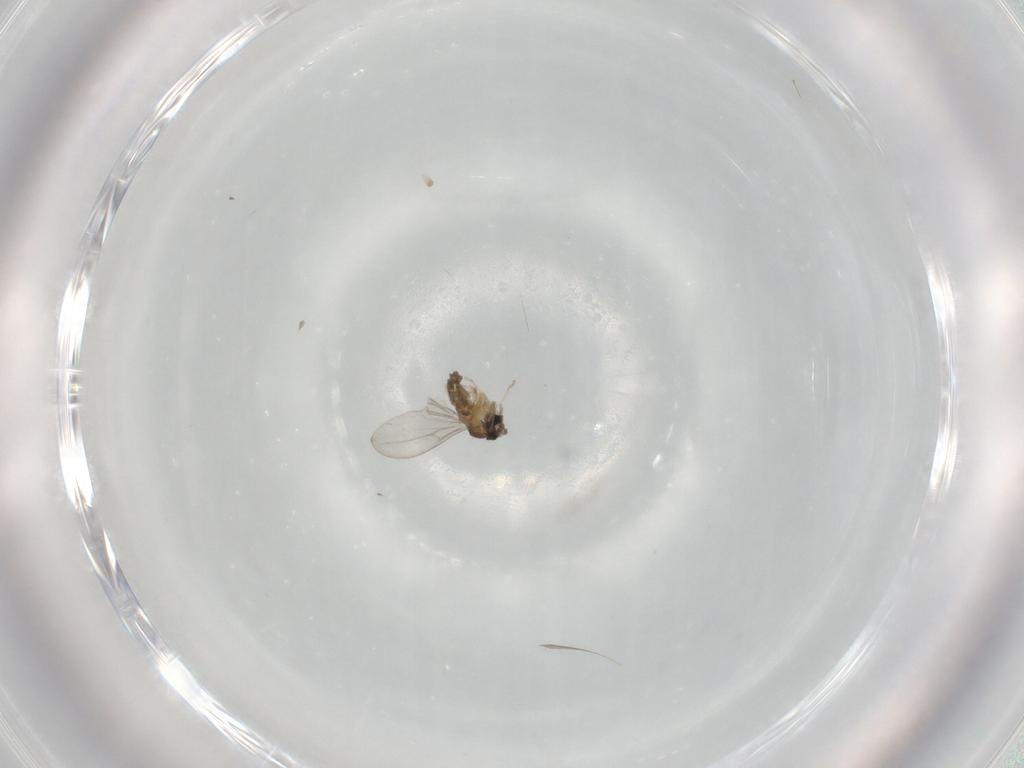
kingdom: Animalia
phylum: Arthropoda
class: Insecta
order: Diptera
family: Cecidomyiidae
